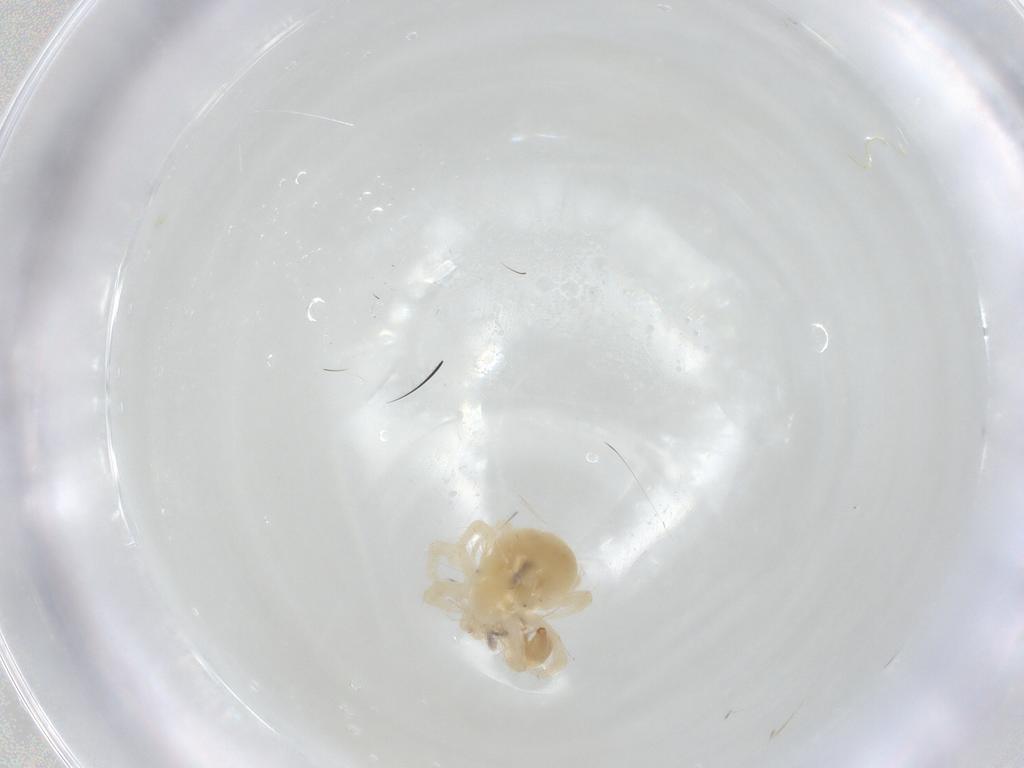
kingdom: Animalia
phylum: Arthropoda
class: Arachnida
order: Trombidiformes
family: Anystidae
